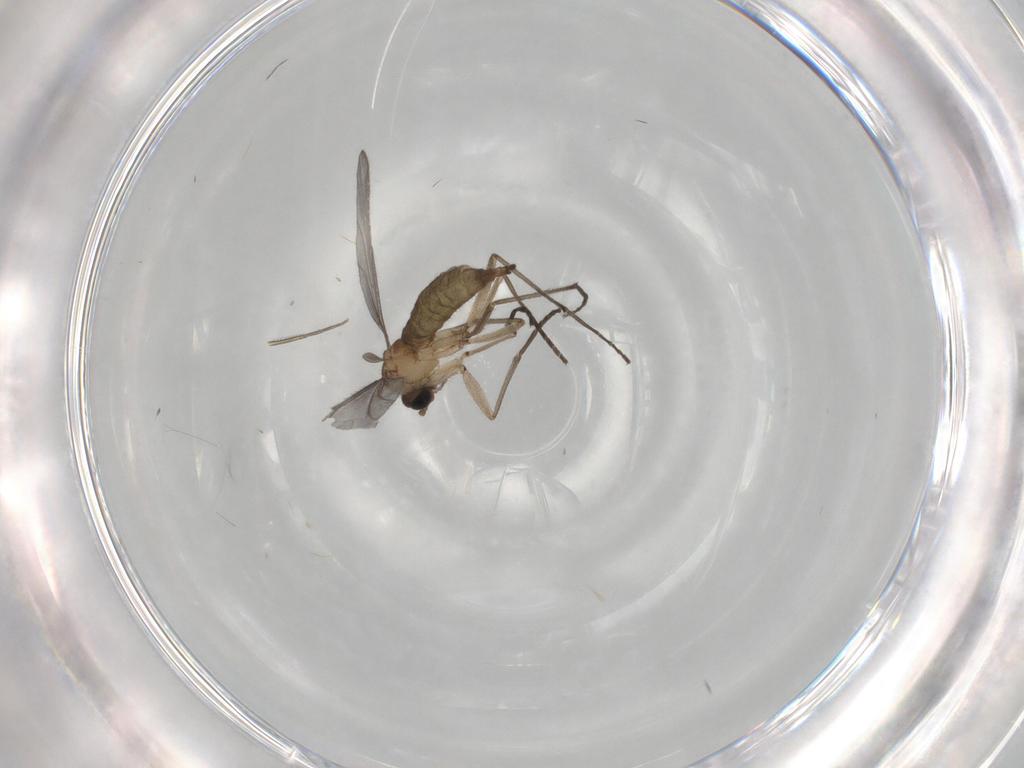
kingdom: Animalia
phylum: Arthropoda
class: Insecta
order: Diptera
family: Sciaridae
